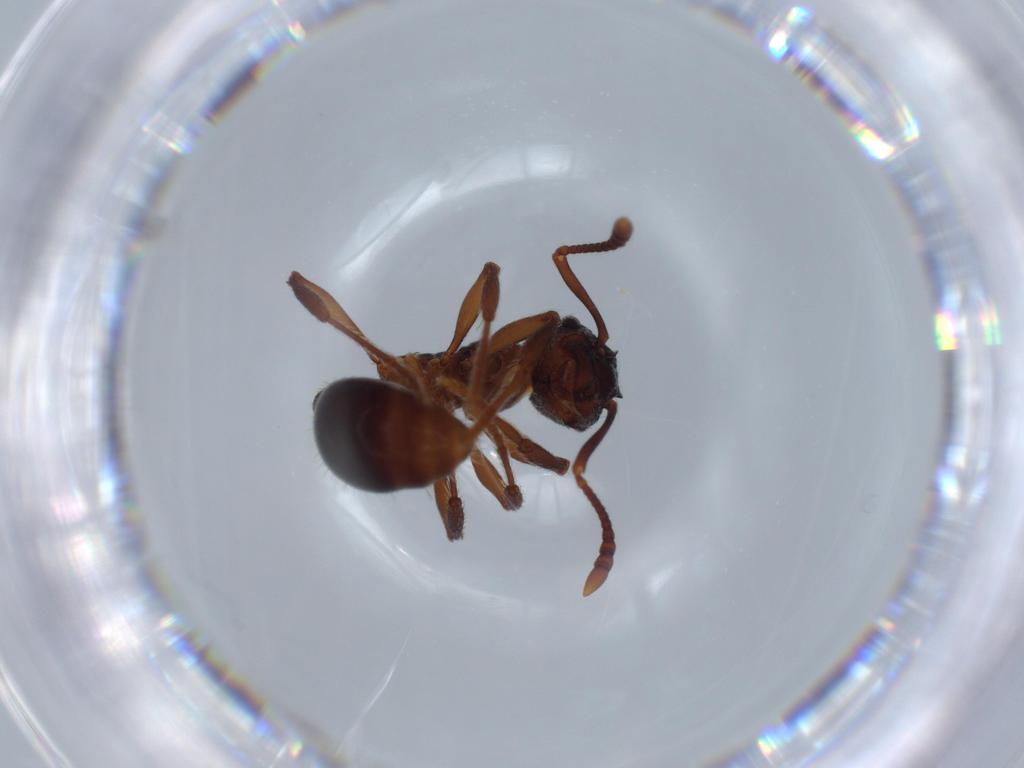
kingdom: Animalia
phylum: Arthropoda
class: Insecta
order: Hymenoptera
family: Formicidae
